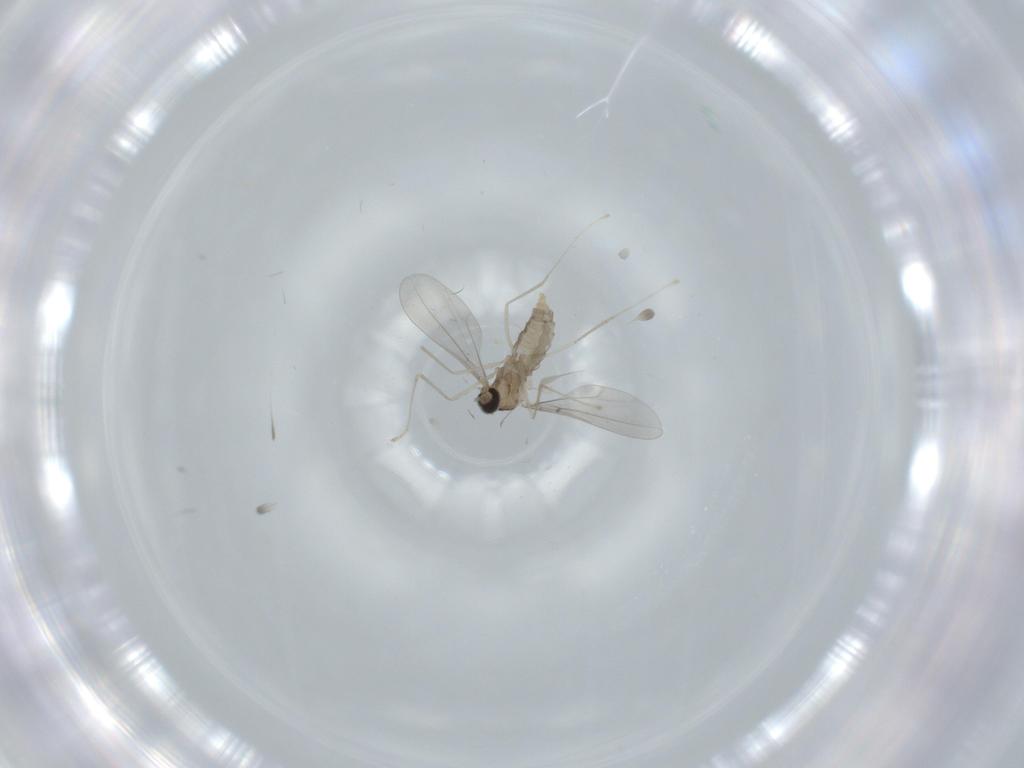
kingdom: Animalia
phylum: Arthropoda
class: Insecta
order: Diptera
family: Cecidomyiidae
